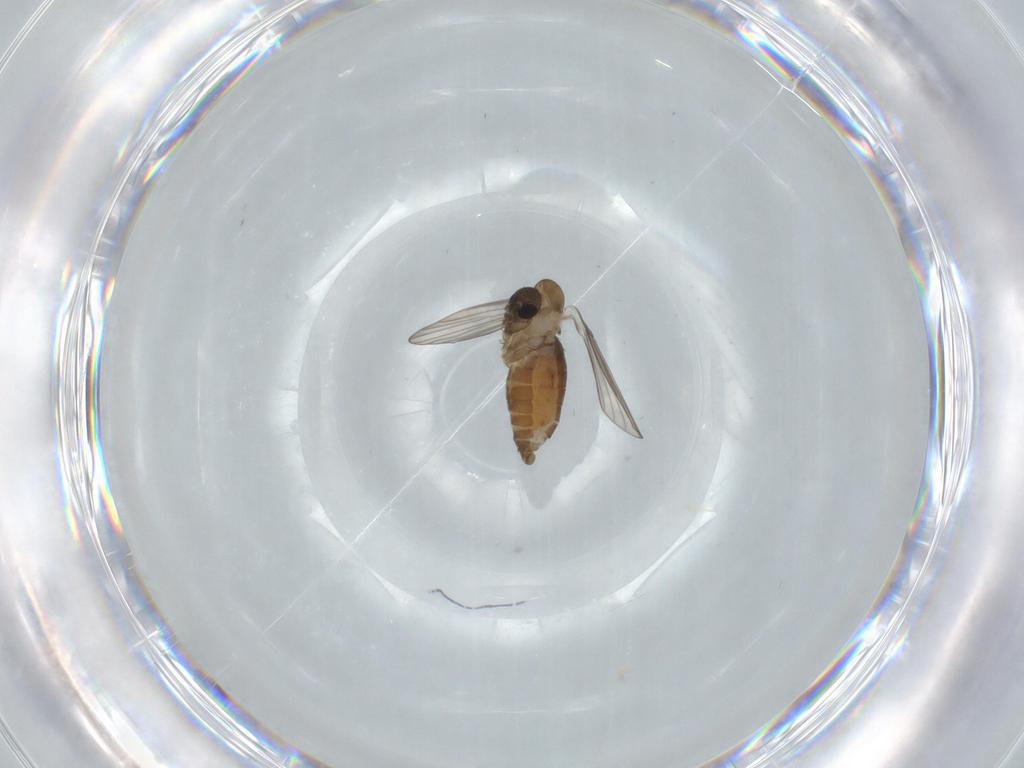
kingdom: Animalia
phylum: Arthropoda
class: Insecta
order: Diptera
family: Psychodidae
